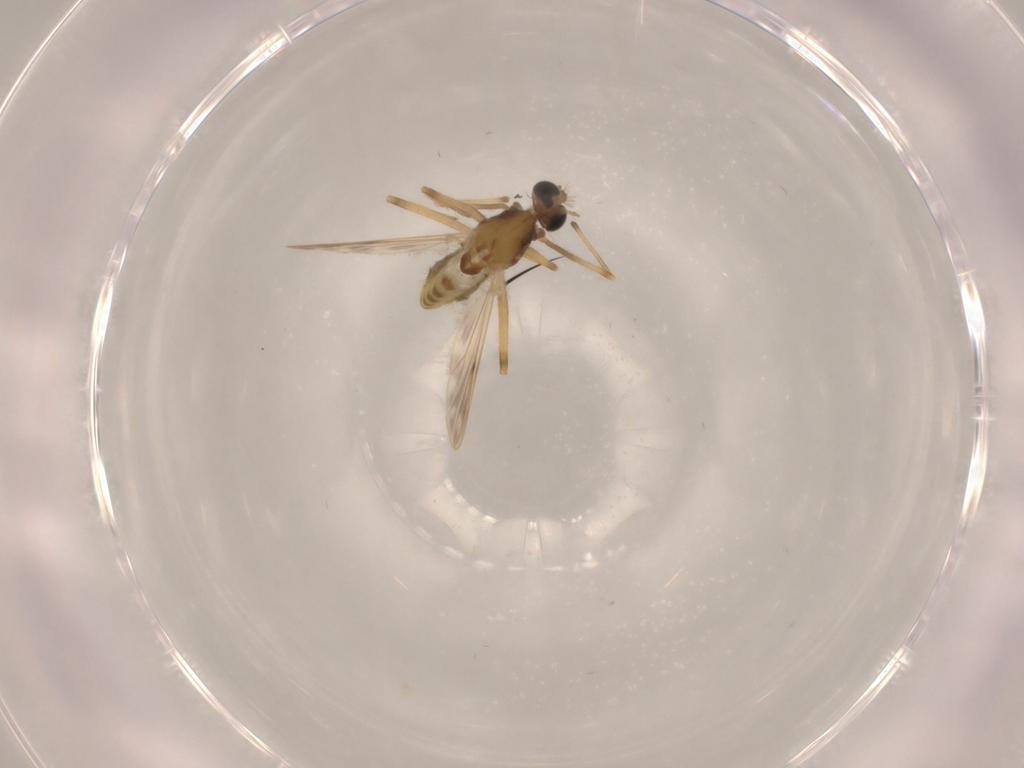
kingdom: Animalia
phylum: Arthropoda
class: Insecta
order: Diptera
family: Chironomidae
